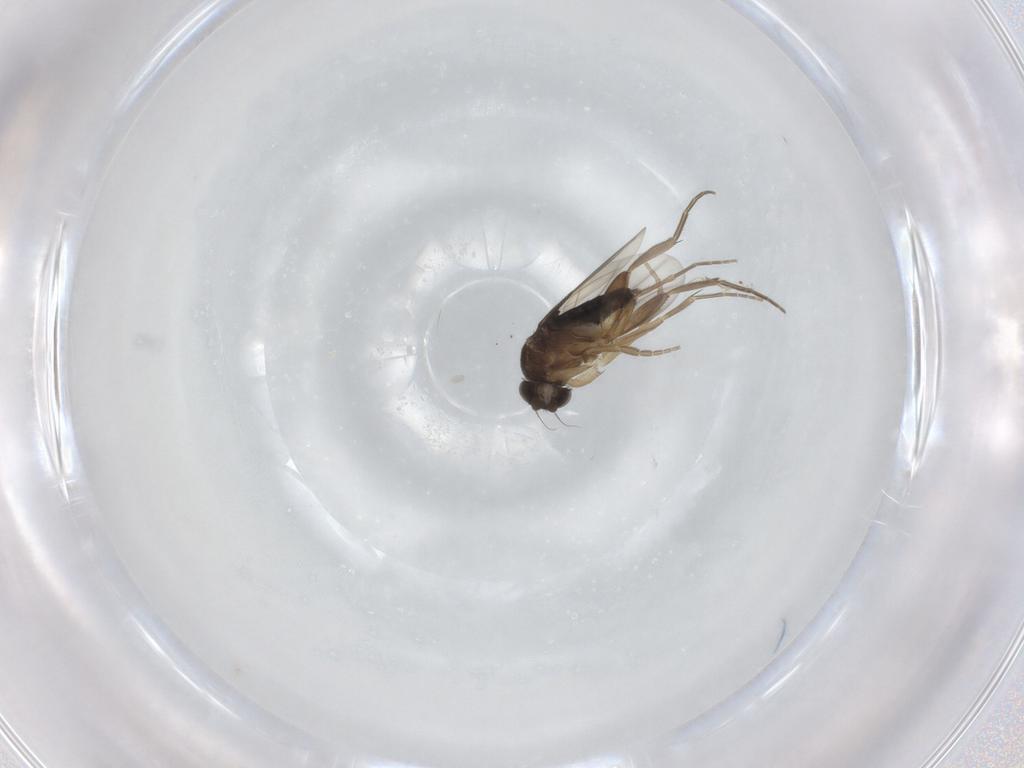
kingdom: Animalia
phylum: Arthropoda
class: Insecta
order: Diptera
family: Phoridae
